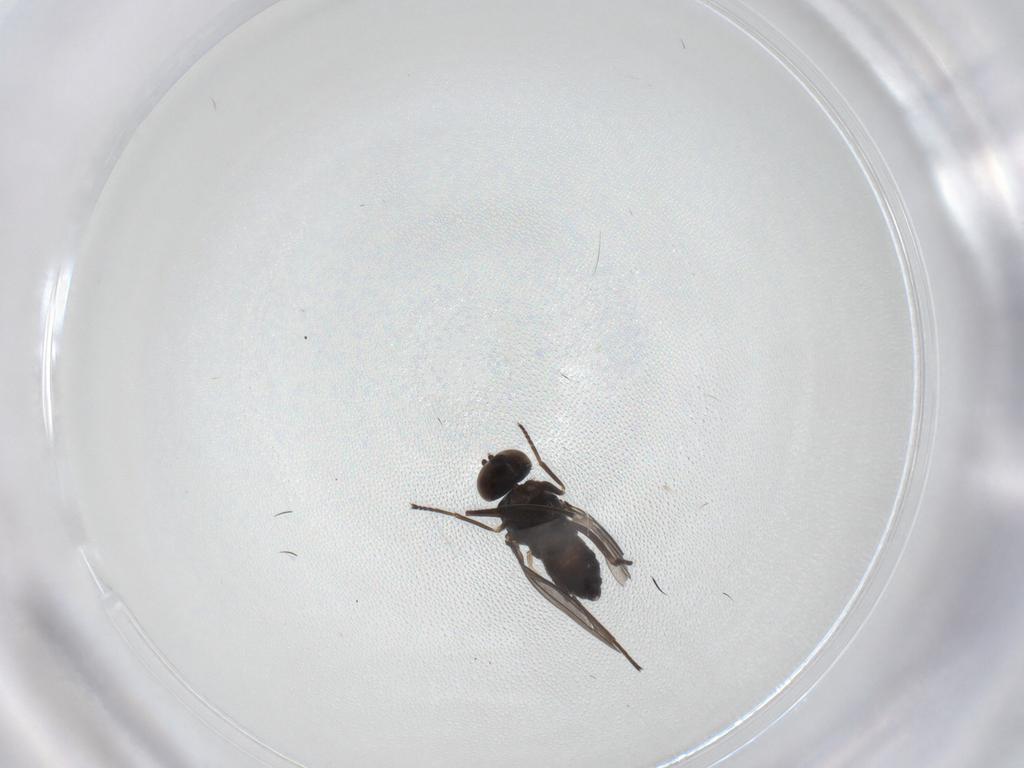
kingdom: Animalia
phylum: Arthropoda
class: Insecta
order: Diptera
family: Dolichopodidae
